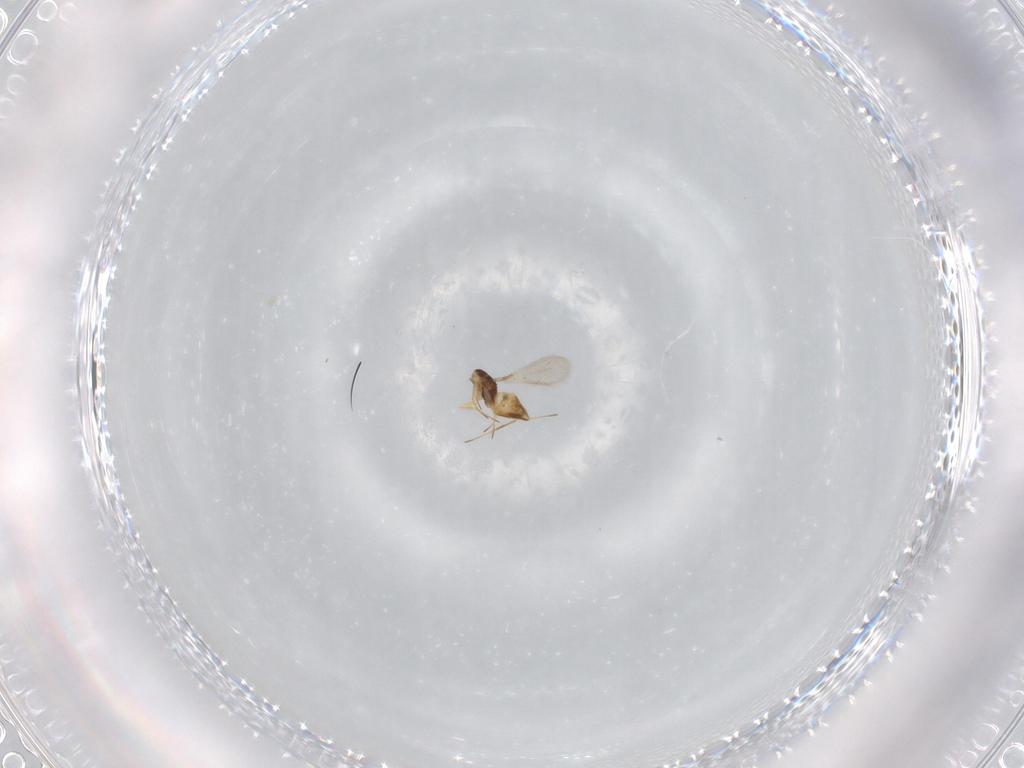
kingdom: Animalia
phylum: Arthropoda
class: Insecta
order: Hymenoptera
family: Crabronidae
